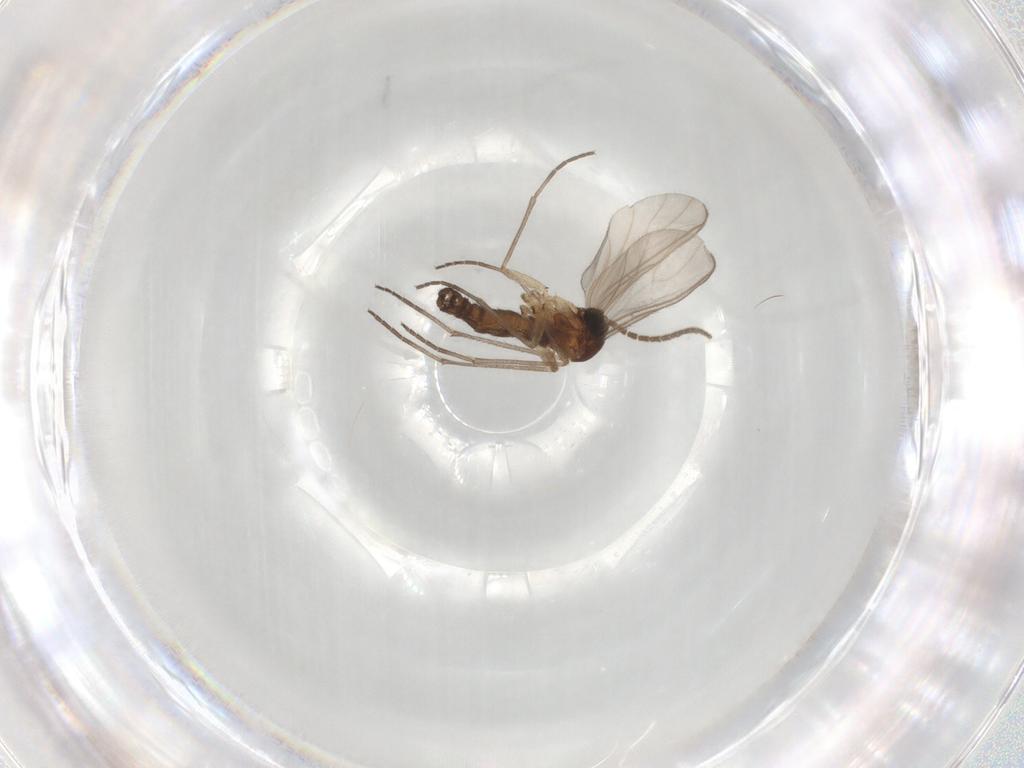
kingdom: Animalia
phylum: Arthropoda
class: Insecta
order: Diptera
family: Sciaridae
